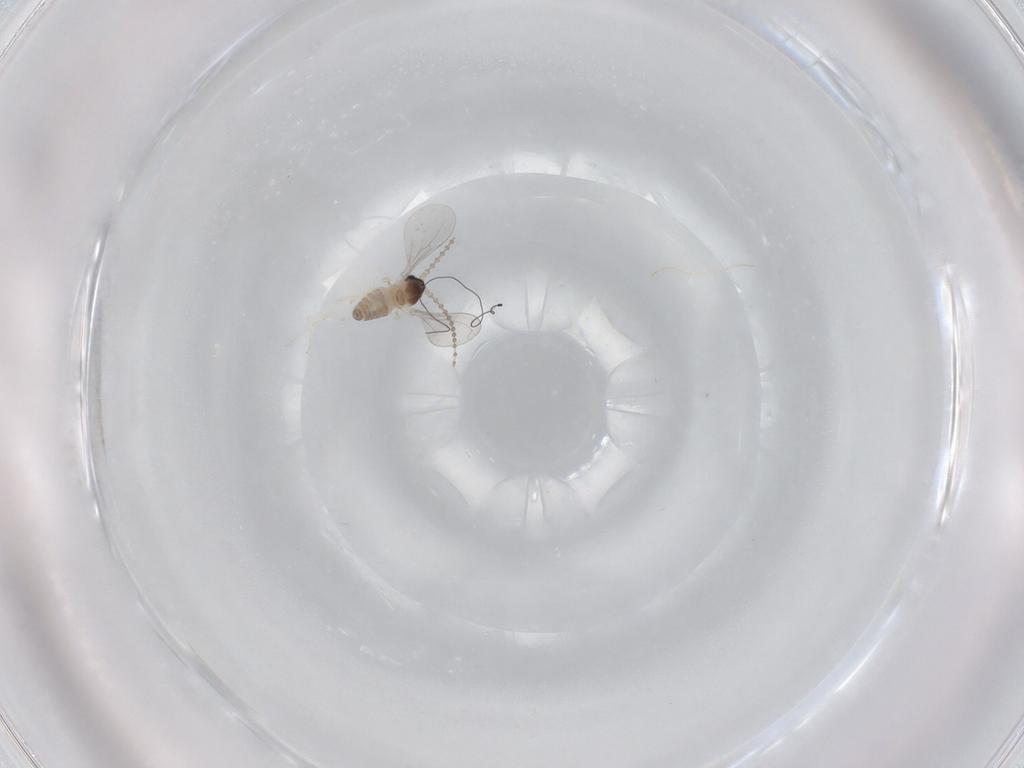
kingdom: Animalia
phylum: Arthropoda
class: Insecta
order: Diptera
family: Cecidomyiidae
